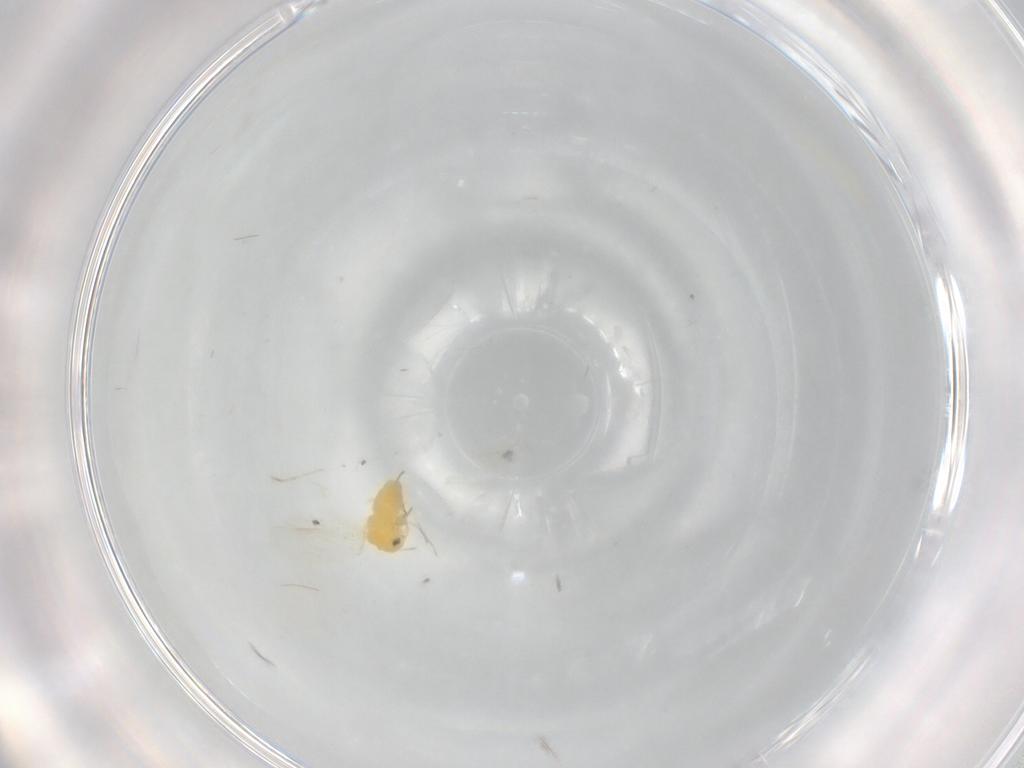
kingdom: Animalia
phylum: Arthropoda
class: Insecta
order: Hemiptera
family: Aleyrodidae
